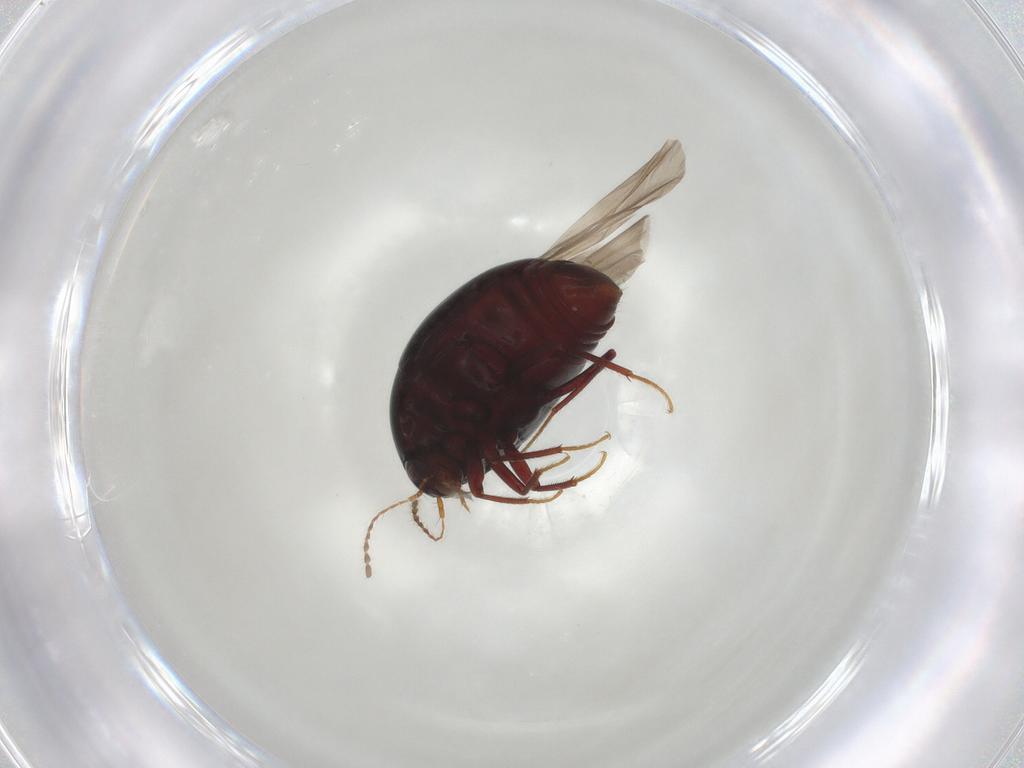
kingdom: Animalia
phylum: Arthropoda
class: Insecta
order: Coleoptera
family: Staphylinidae
